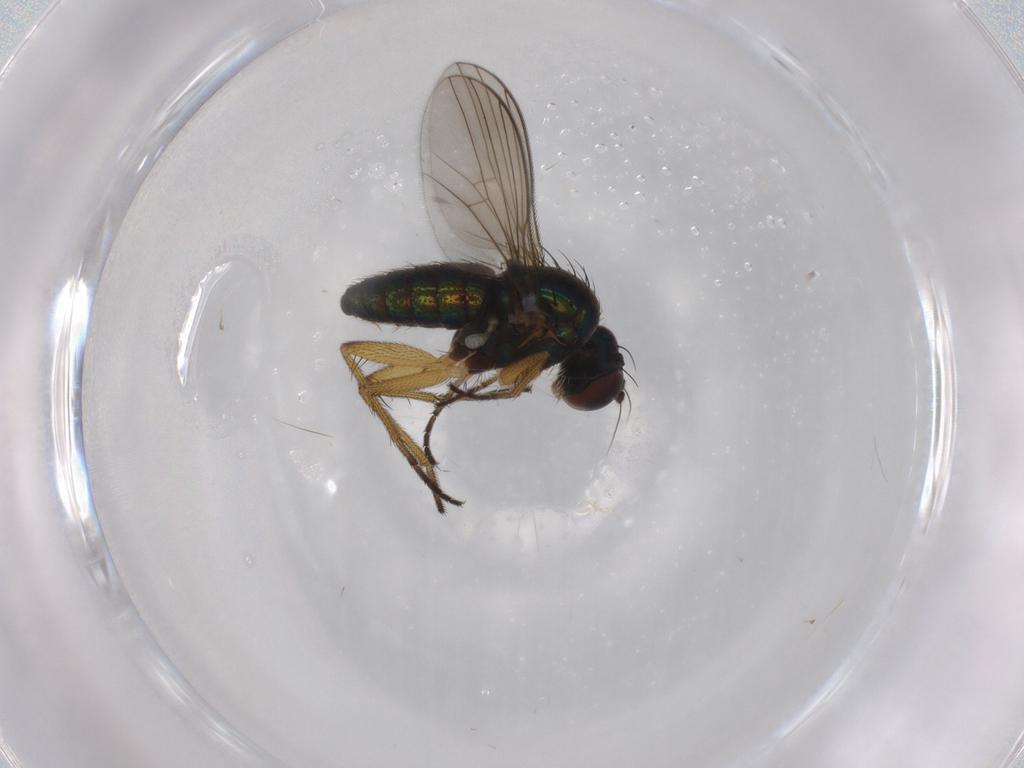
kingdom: Animalia
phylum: Arthropoda
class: Insecta
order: Diptera
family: Dolichopodidae
